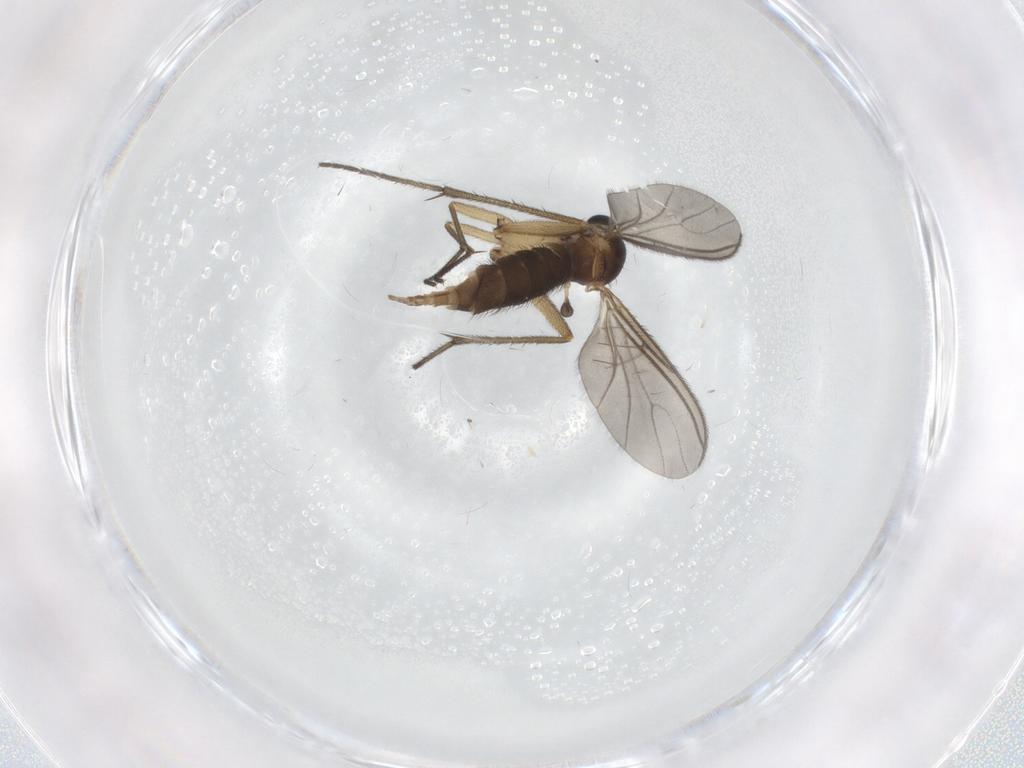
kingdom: Animalia
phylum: Arthropoda
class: Insecta
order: Diptera
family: Sciaridae
